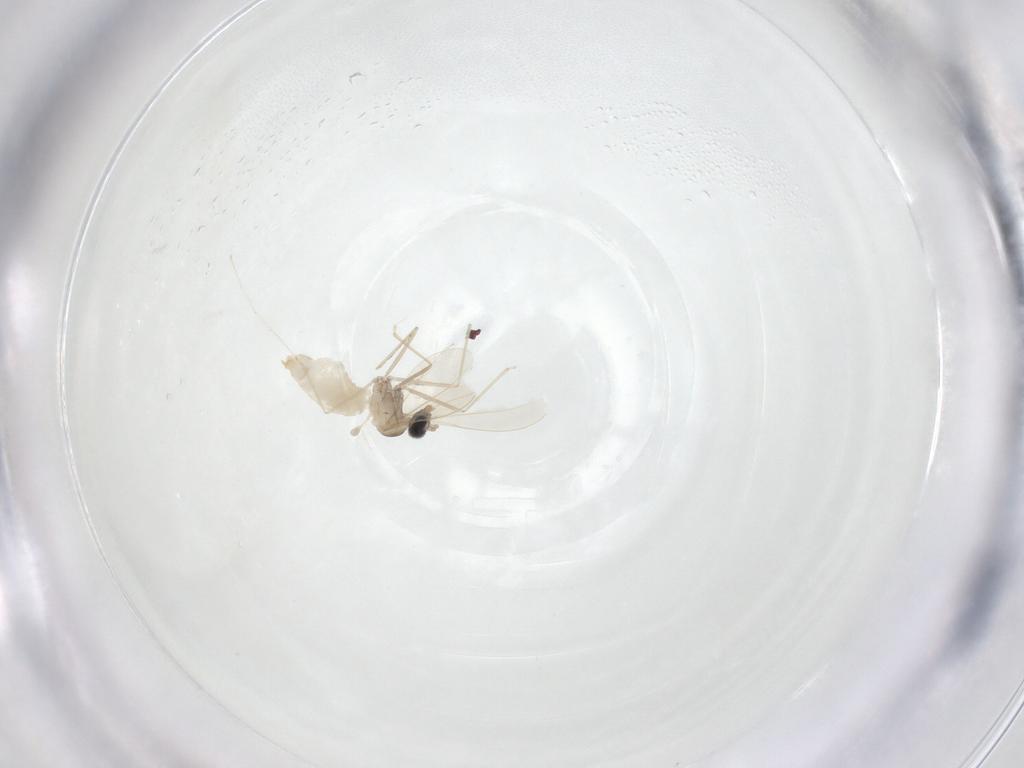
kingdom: Animalia
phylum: Arthropoda
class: Insecta
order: Diptera
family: Cecidomyiidae
